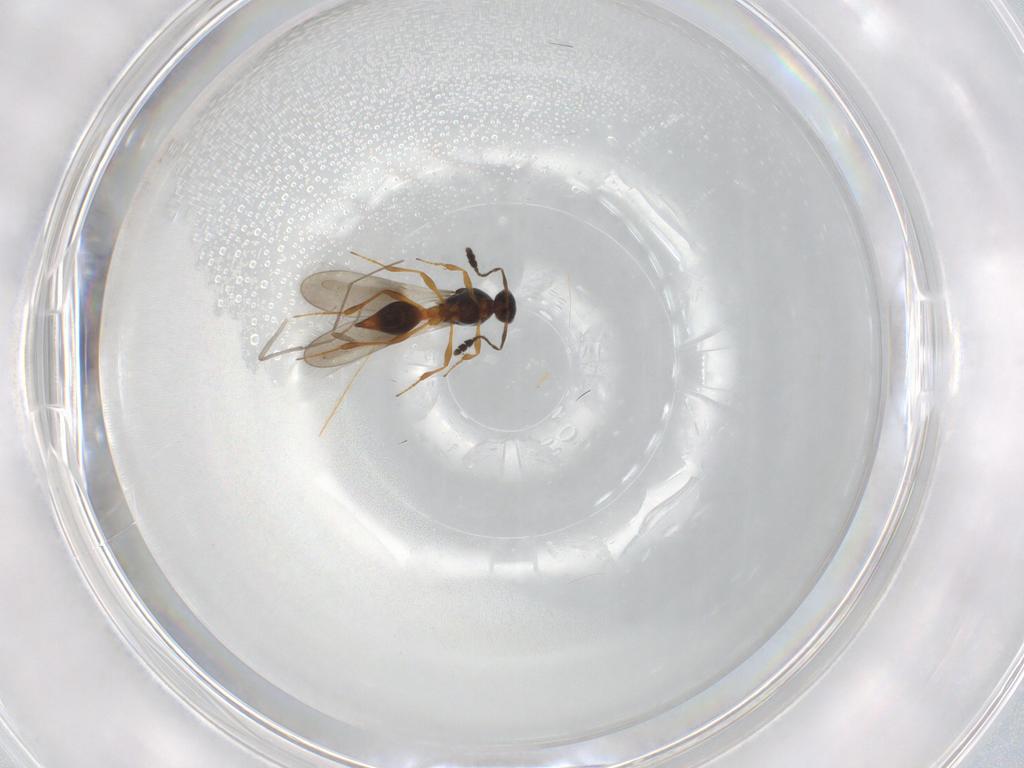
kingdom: Animalia
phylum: Arthropoda
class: Insecta
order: Hymenoptera
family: Platygastridae
